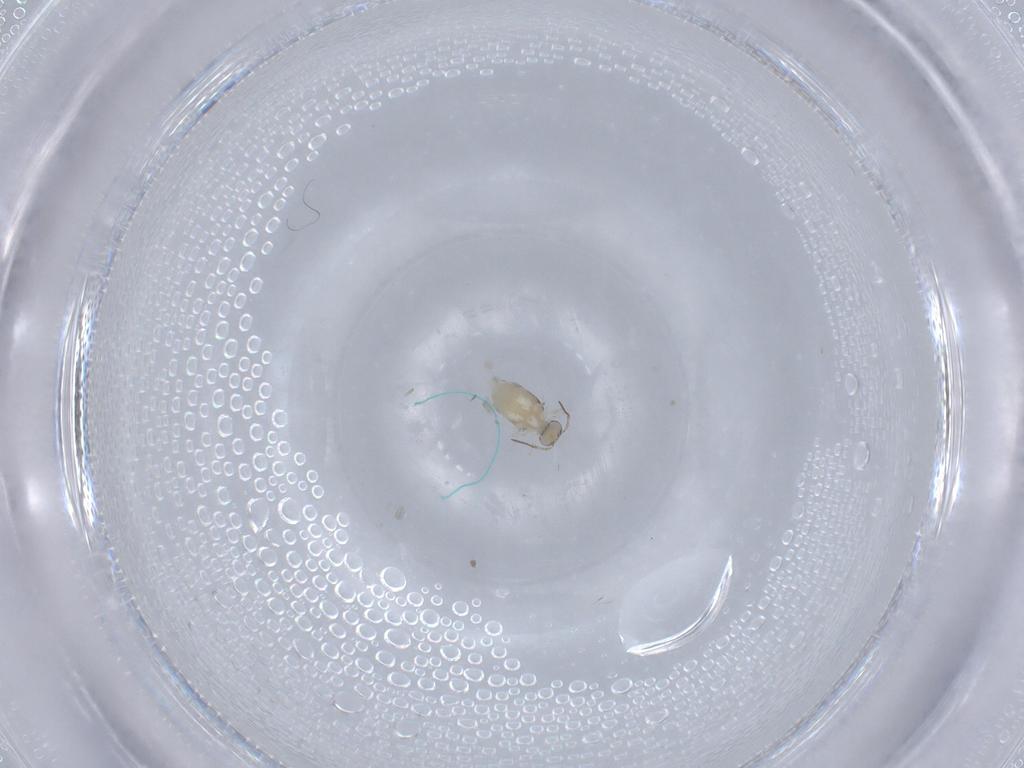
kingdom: Animalia
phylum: Arthropoda
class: Collembola
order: Symphypleona
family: Bourletiellidae
